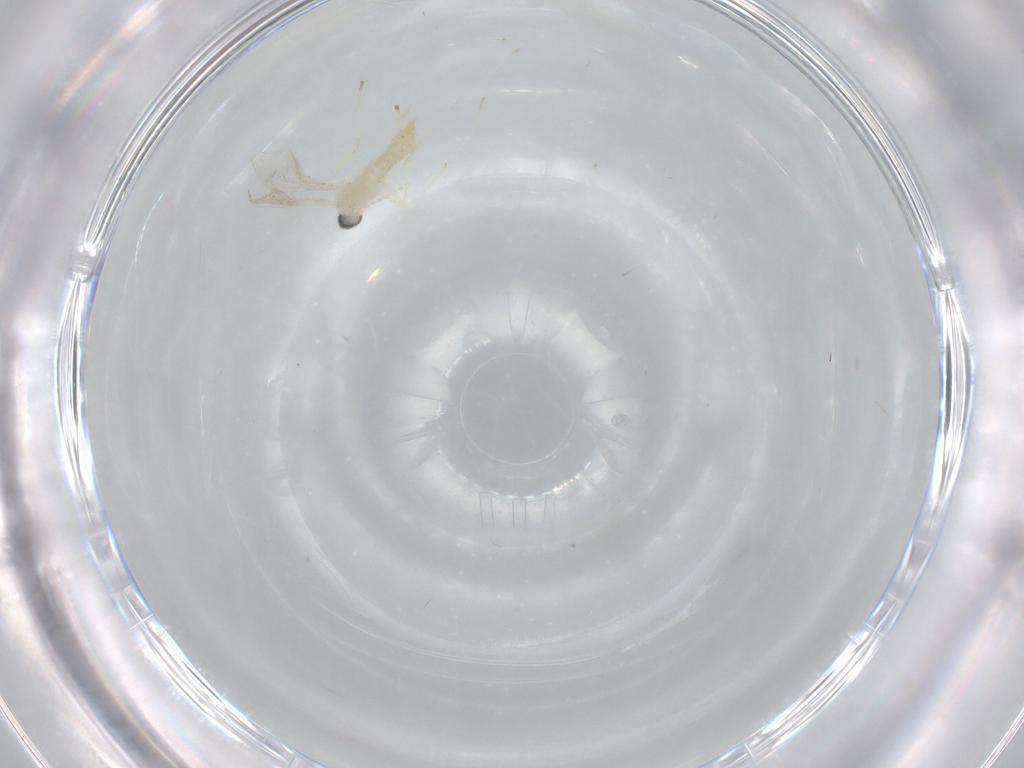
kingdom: Animalia
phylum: Arthropoda
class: Insecta
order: Diptera
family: Cecidomyiidae
